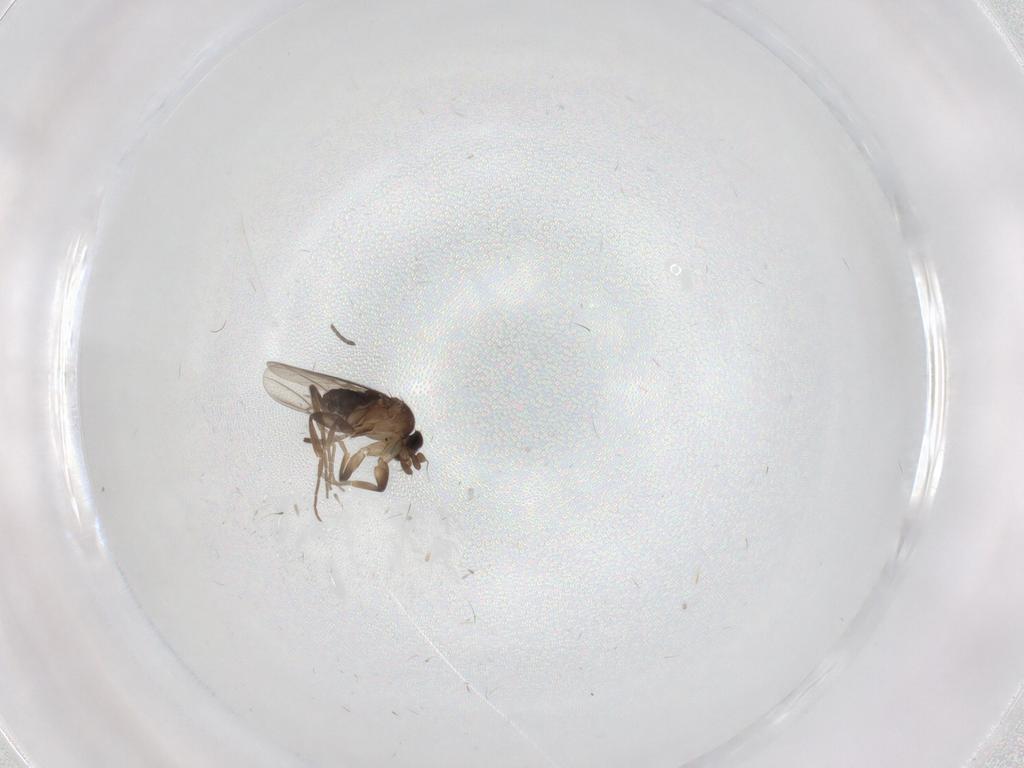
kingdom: Animalia
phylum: Arthropoda
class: Insecta
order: Diptera
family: Phoridae
